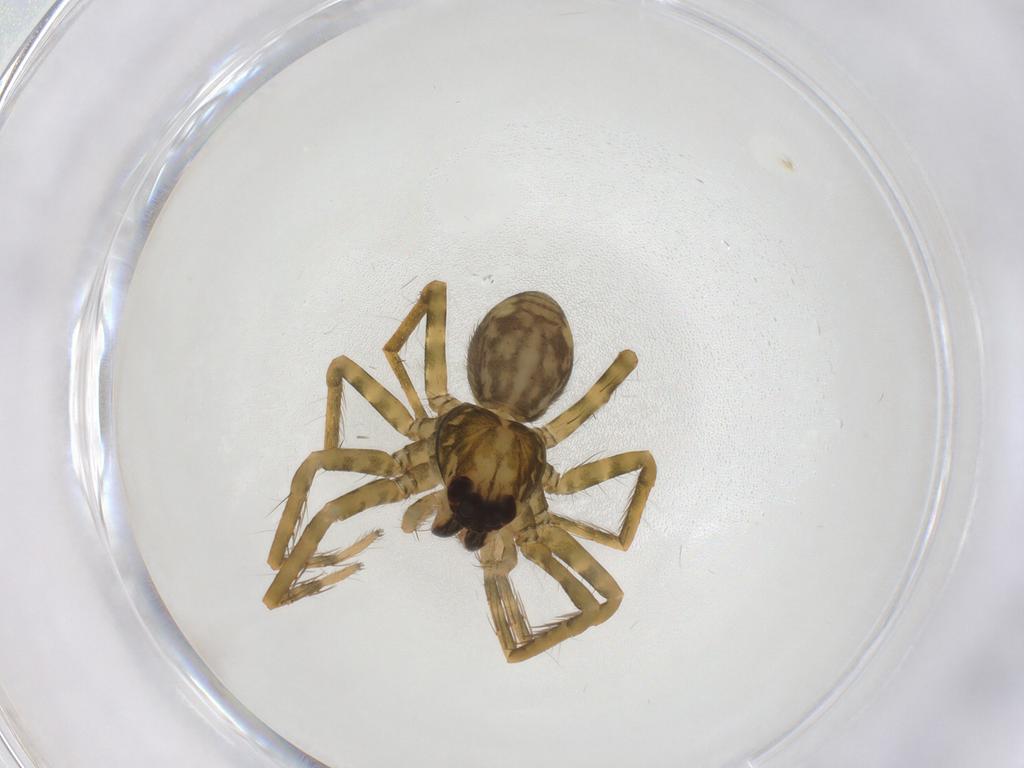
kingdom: Animalia
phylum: Arthropoda
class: Arachnida
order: Araneae
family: Trechaleidae
